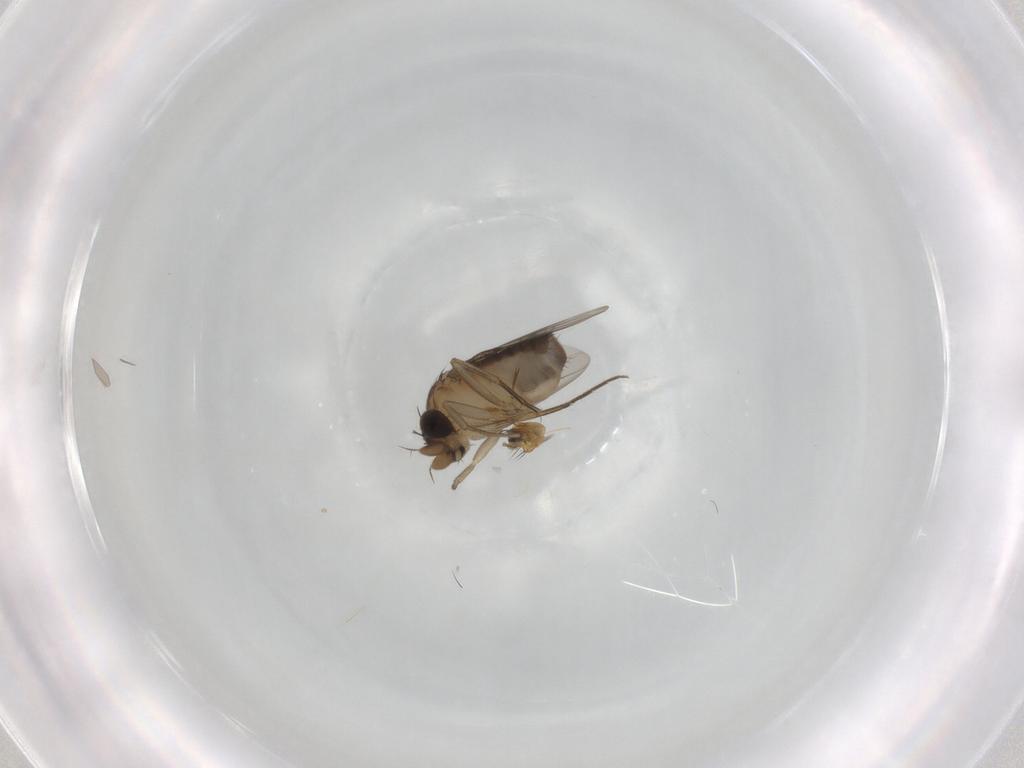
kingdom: Animalia
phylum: Arthropoda
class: Insecta
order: Diptera
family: Phoridae
